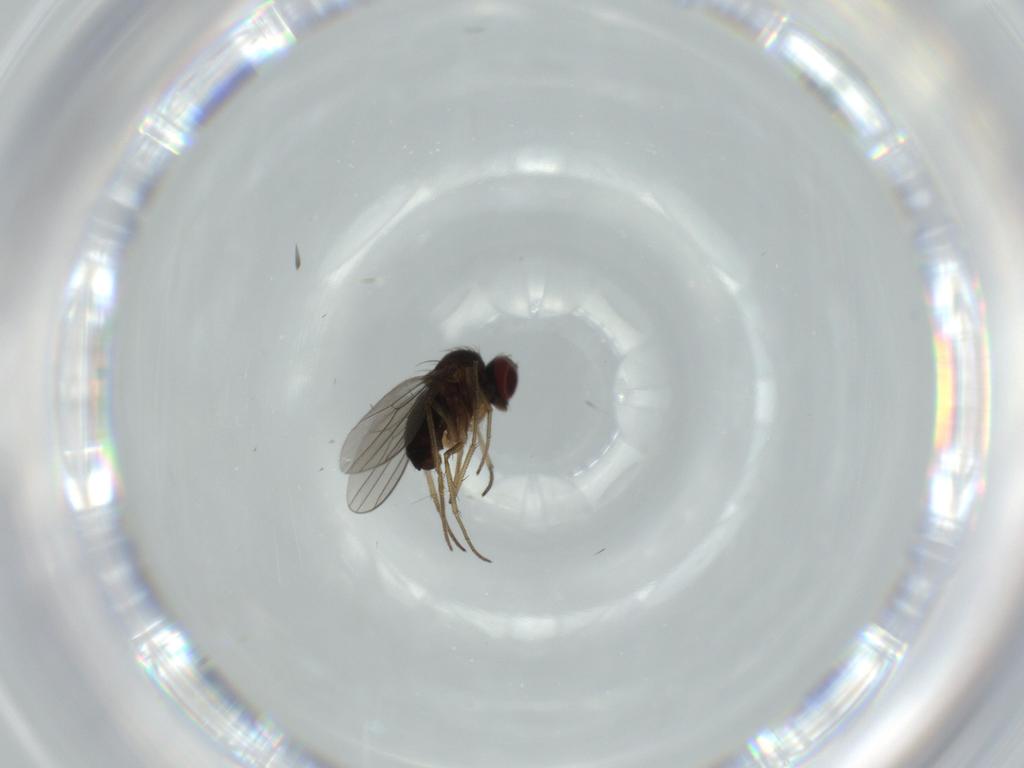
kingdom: Animalia
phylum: Arthropoda
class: Insecta
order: Diptera
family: Dolichopodidae
